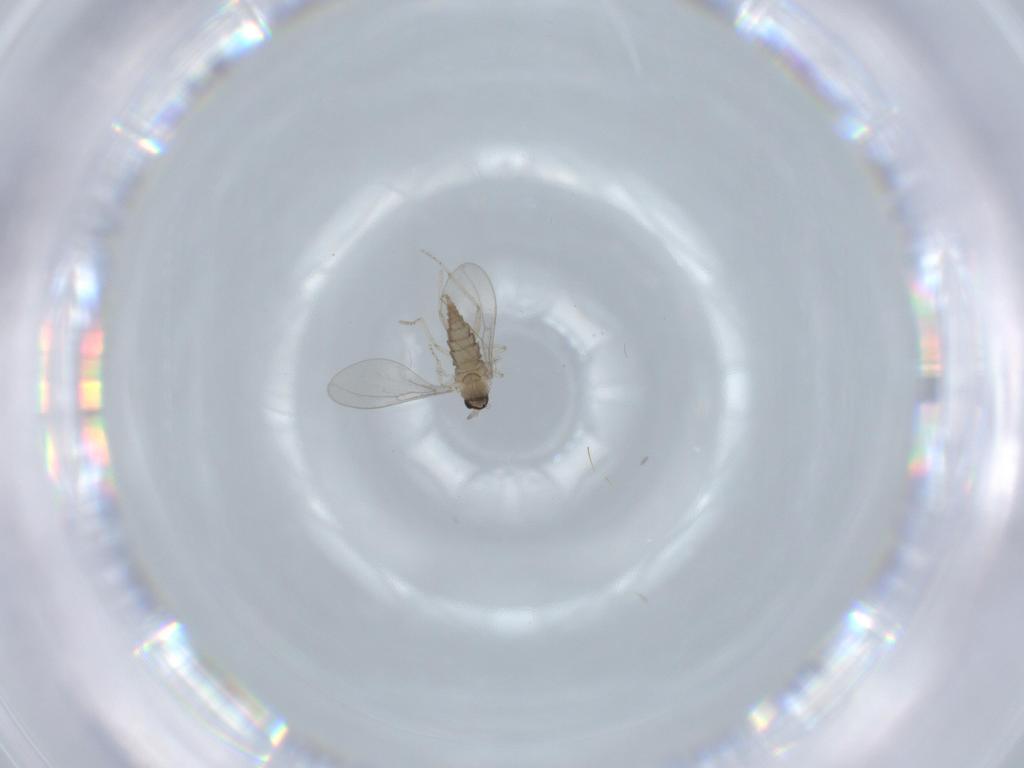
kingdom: Animalia
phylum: Arthropoda
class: Insecta
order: Diptera
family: Cecidomyiidae
